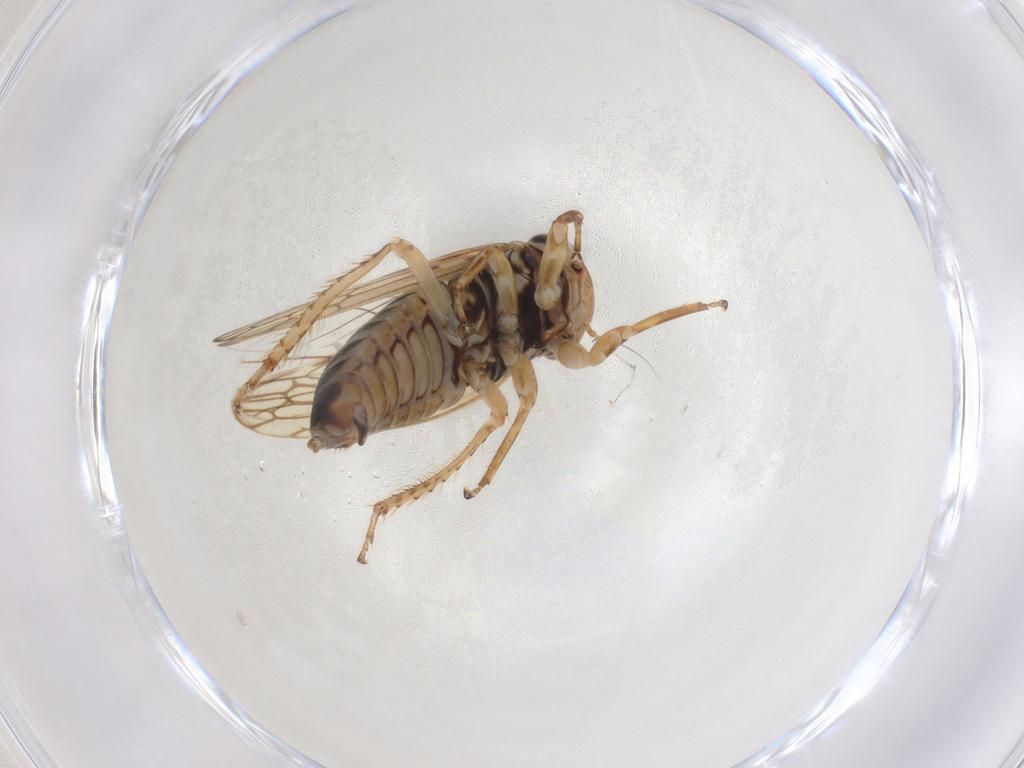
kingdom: Animalia
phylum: Arthropoda
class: Insecta
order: Hemiptera
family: Cicadellidae
